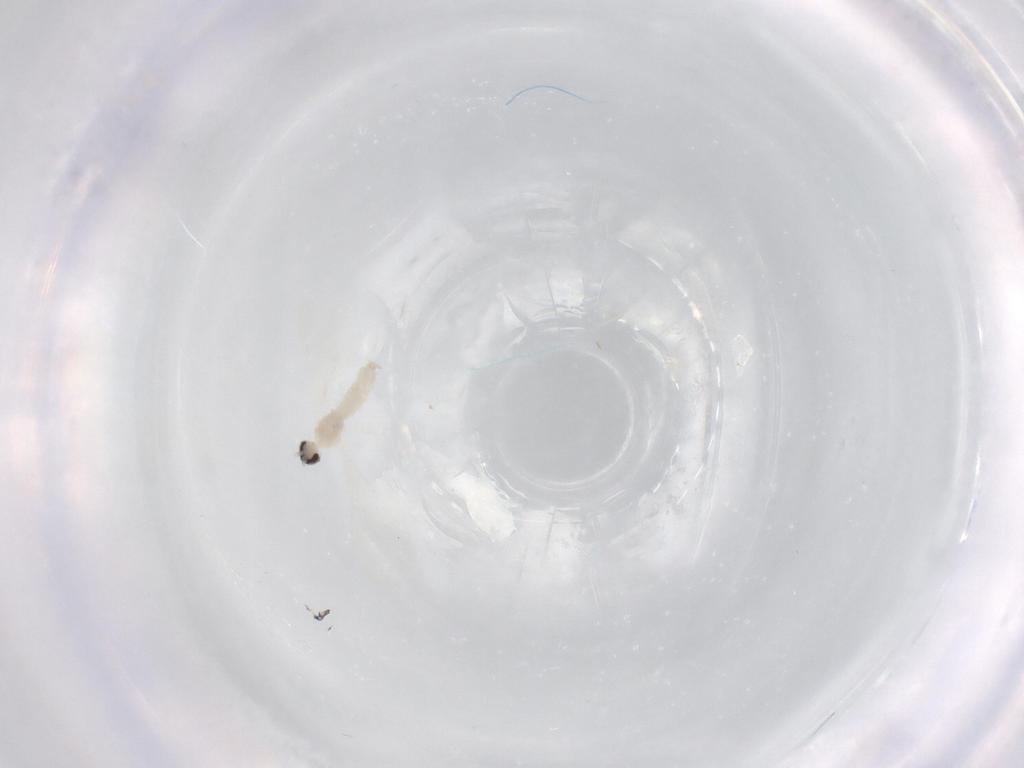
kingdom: Animalia
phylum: Arthropoda
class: Insecta
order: Diptera
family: Cecidomyiidae
